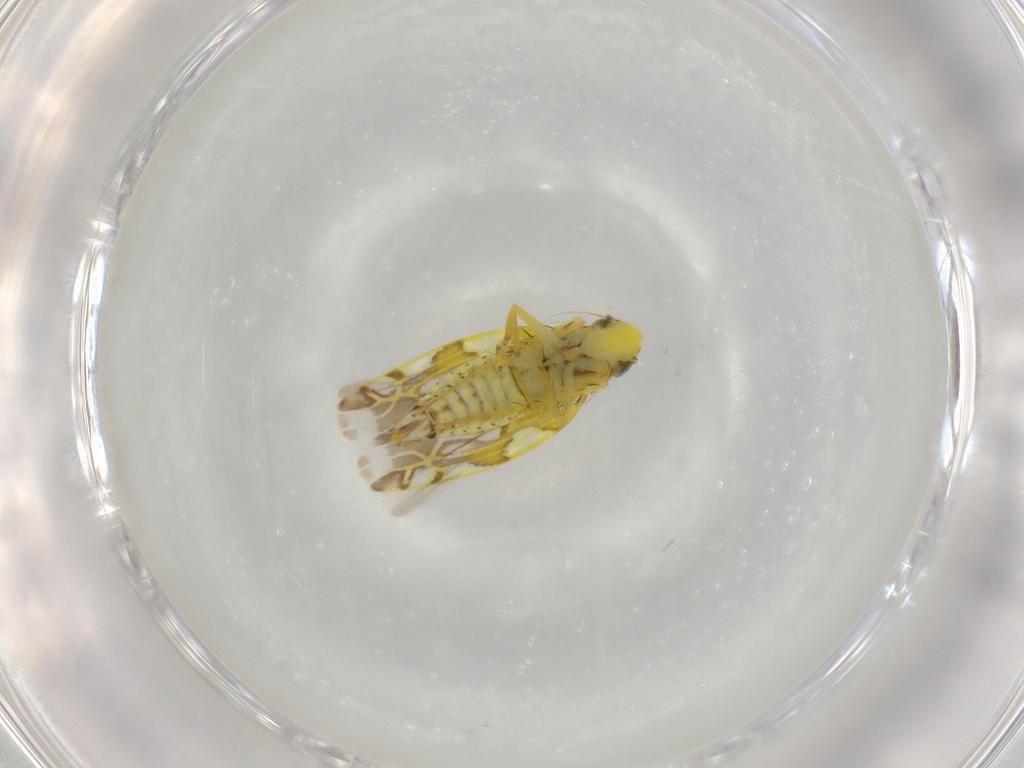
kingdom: Animalia
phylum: Arthropoda
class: Insecta
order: Hemiptera
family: Cicadellidae
